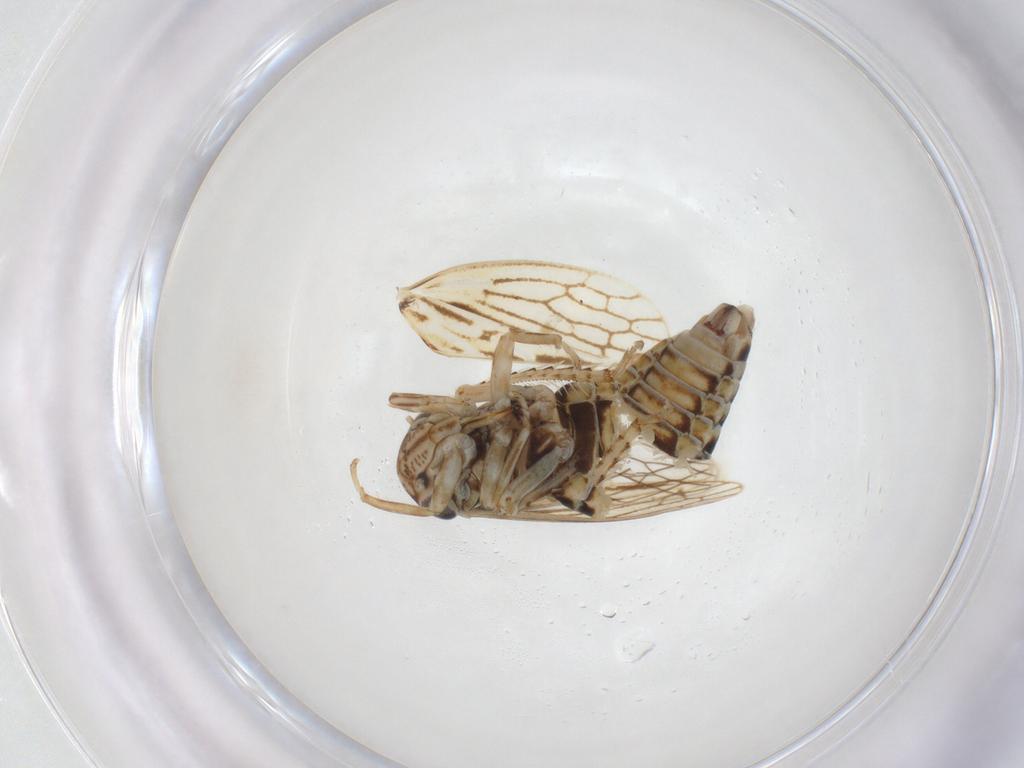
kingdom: Animalia
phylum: Arthropoda
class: Insecta
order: Hemiptera
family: Cicadellidae
